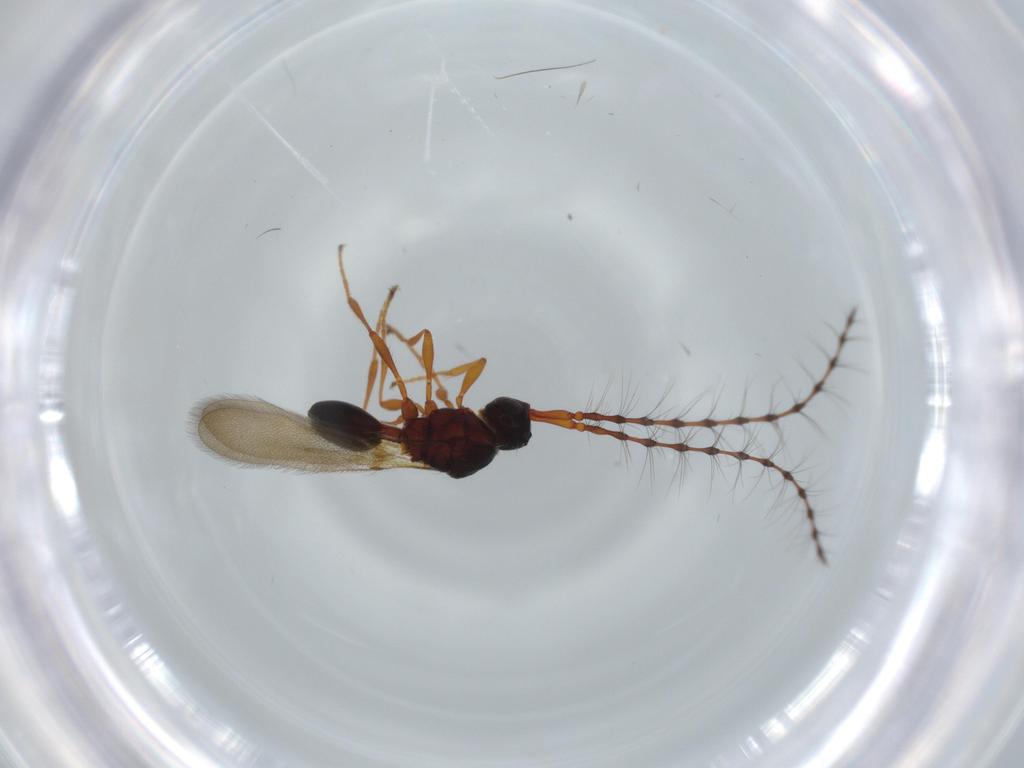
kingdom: Animalia
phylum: Arthropoda
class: Insecta
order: Hymenoptera
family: Diapriidae
